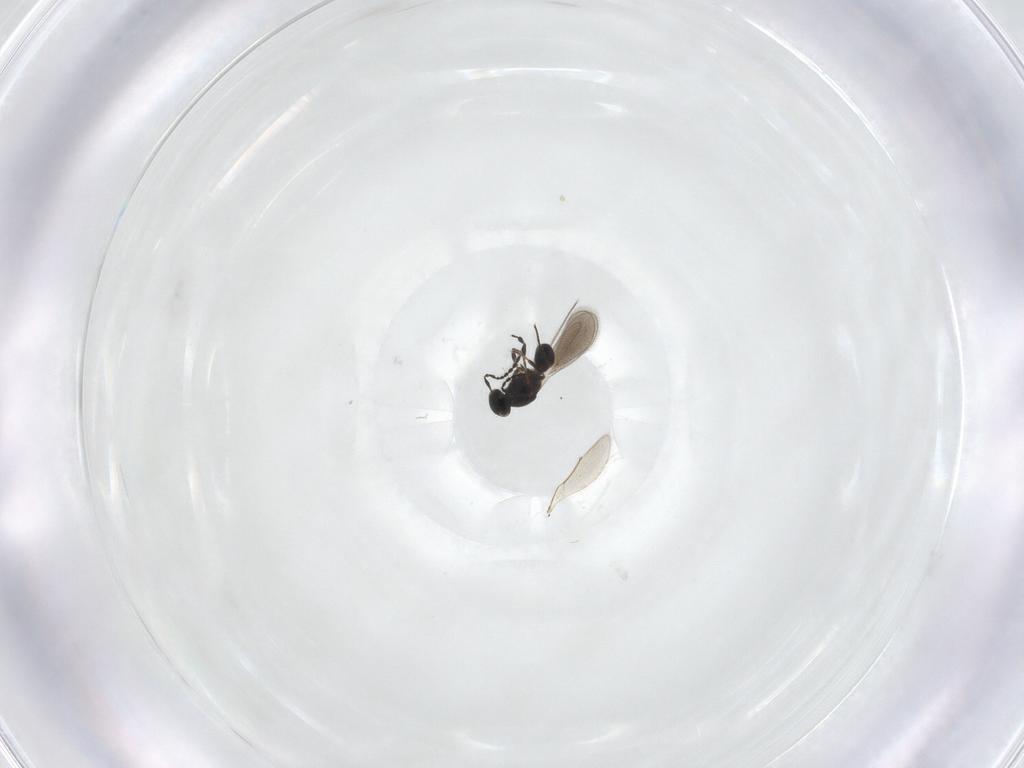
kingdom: Animalia
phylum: Arthropoda
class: Insecta
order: Hymenoptera
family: Platygastridae
